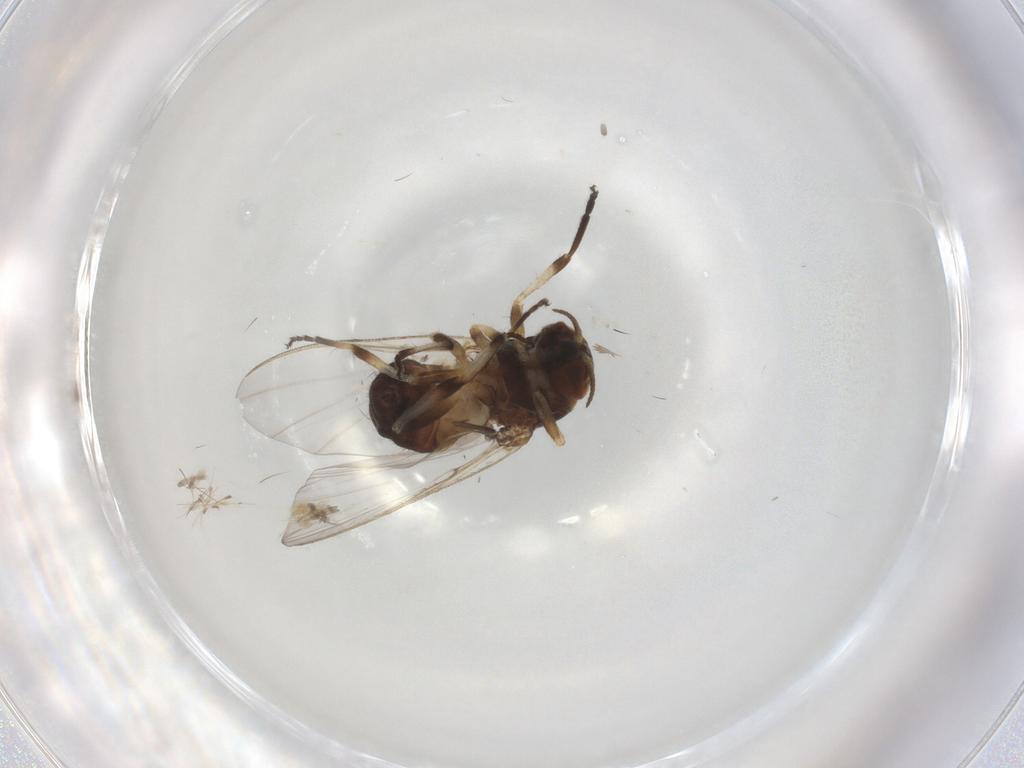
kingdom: Animalia
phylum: Arthropoda
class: Insecta
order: Diptera
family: Simuliidae
